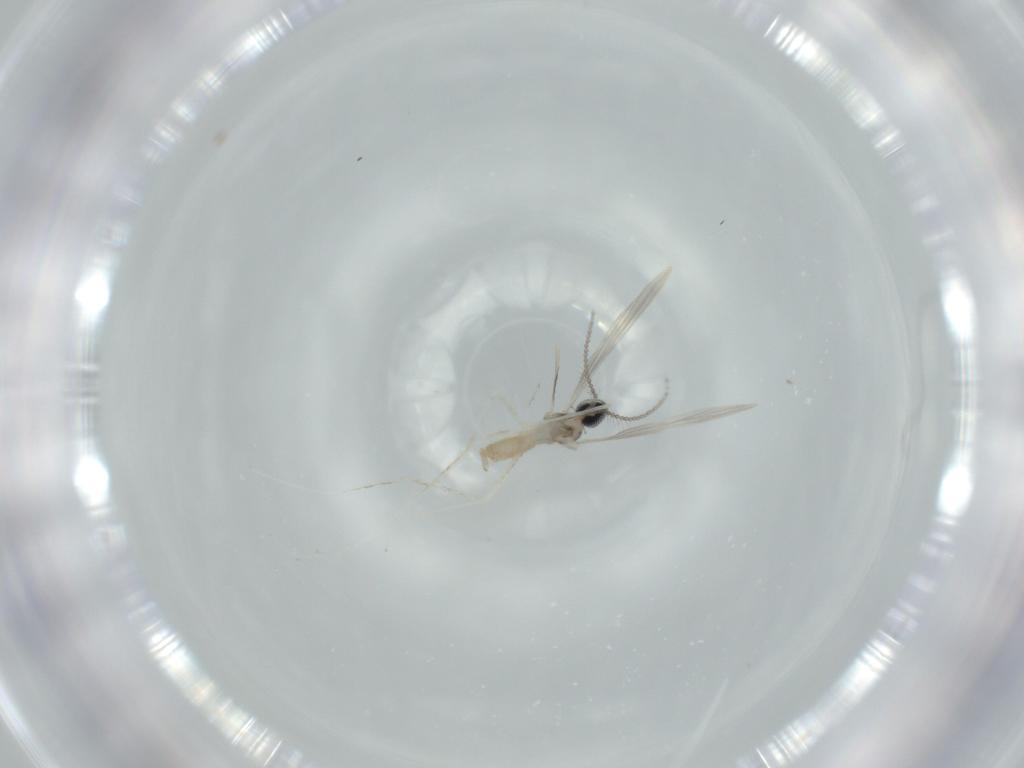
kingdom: Animalia
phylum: Arthropoda
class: Insecta
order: Diptera
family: Cecidomyiidae
